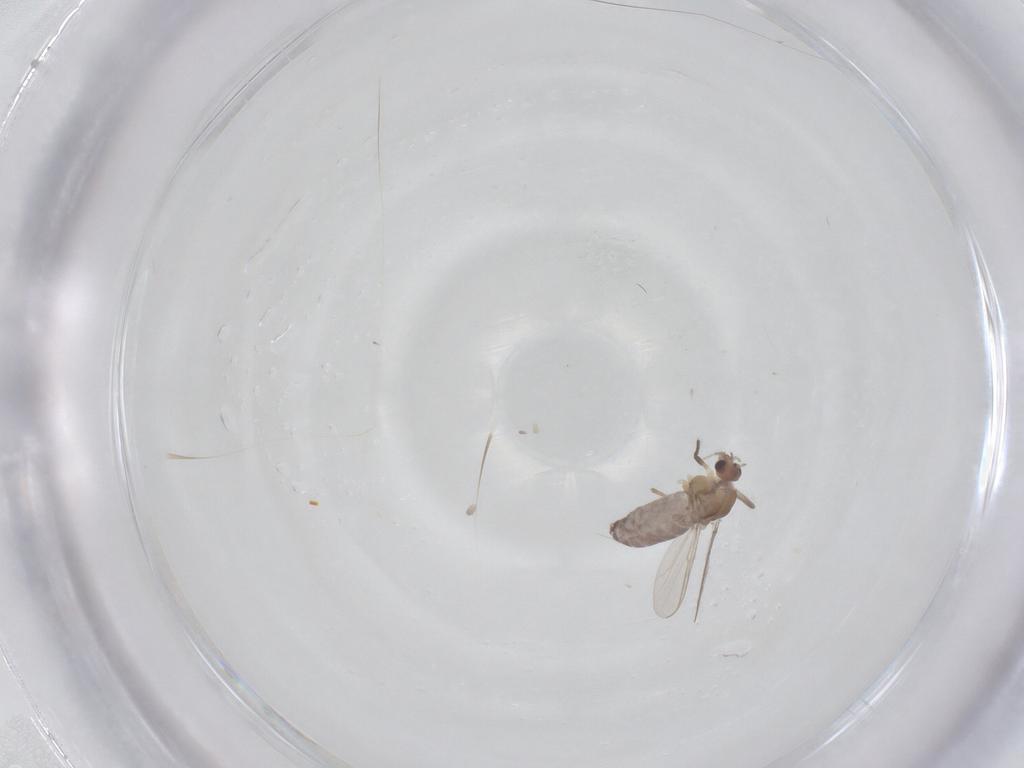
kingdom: Animalia
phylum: Arthropoda
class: Insecta
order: Diptera
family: Chironomidae
